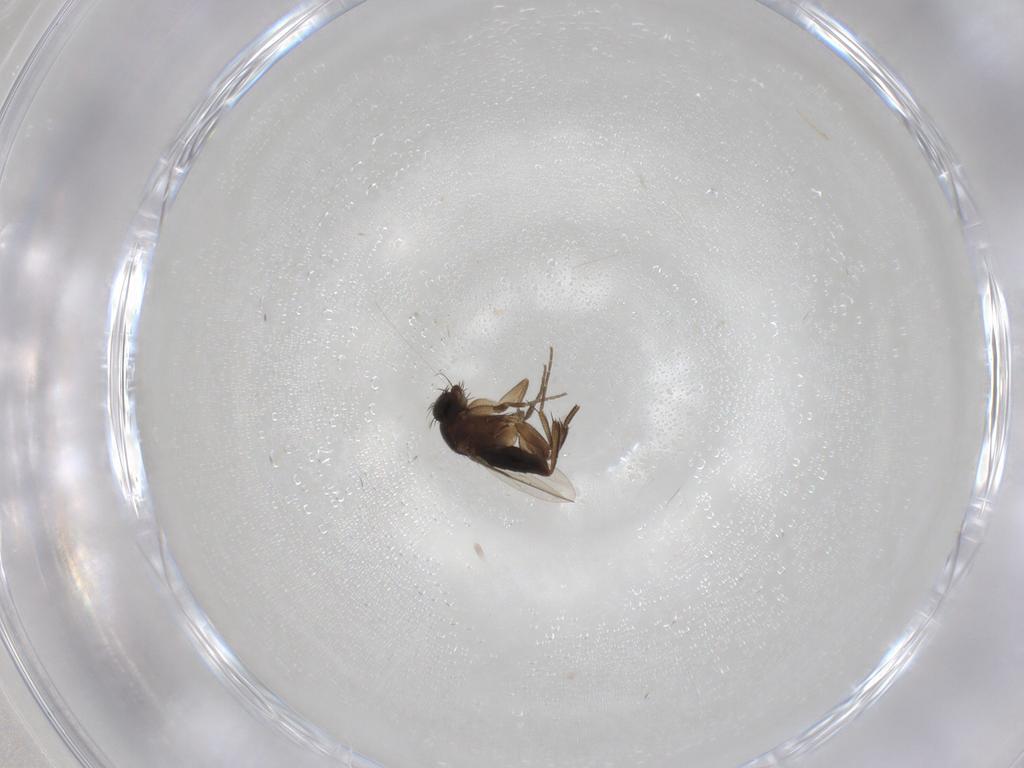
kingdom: Animalia
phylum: Arthropoda
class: Insecta
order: Diptera
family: Phoridae
